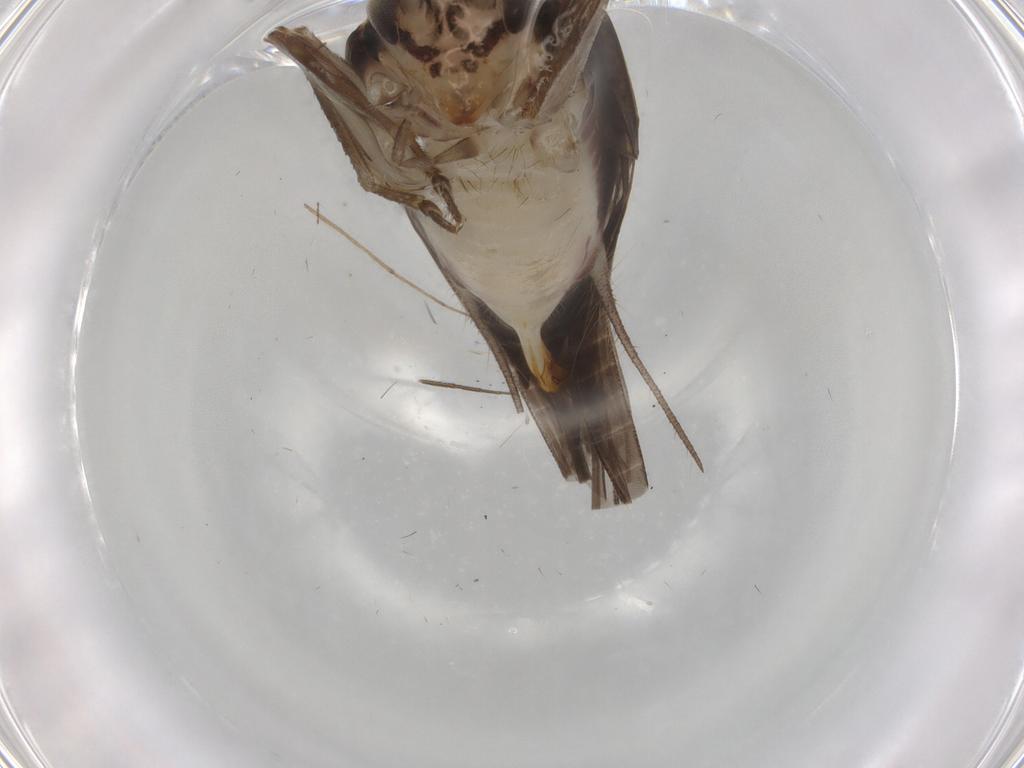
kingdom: Animalia
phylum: Arthropoda
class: Insecta
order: Orthoptera
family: Trigonidiidae
